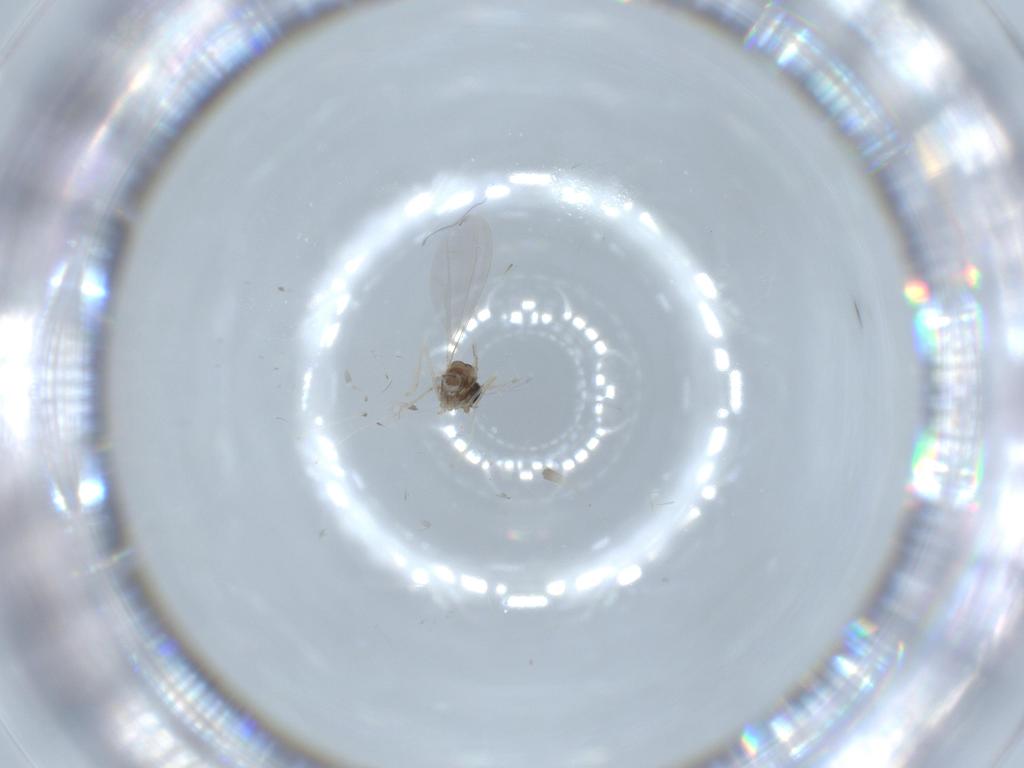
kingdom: Animalia
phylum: Arthropoda
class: Insecta
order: Diptera
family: Cecidomyiidae
